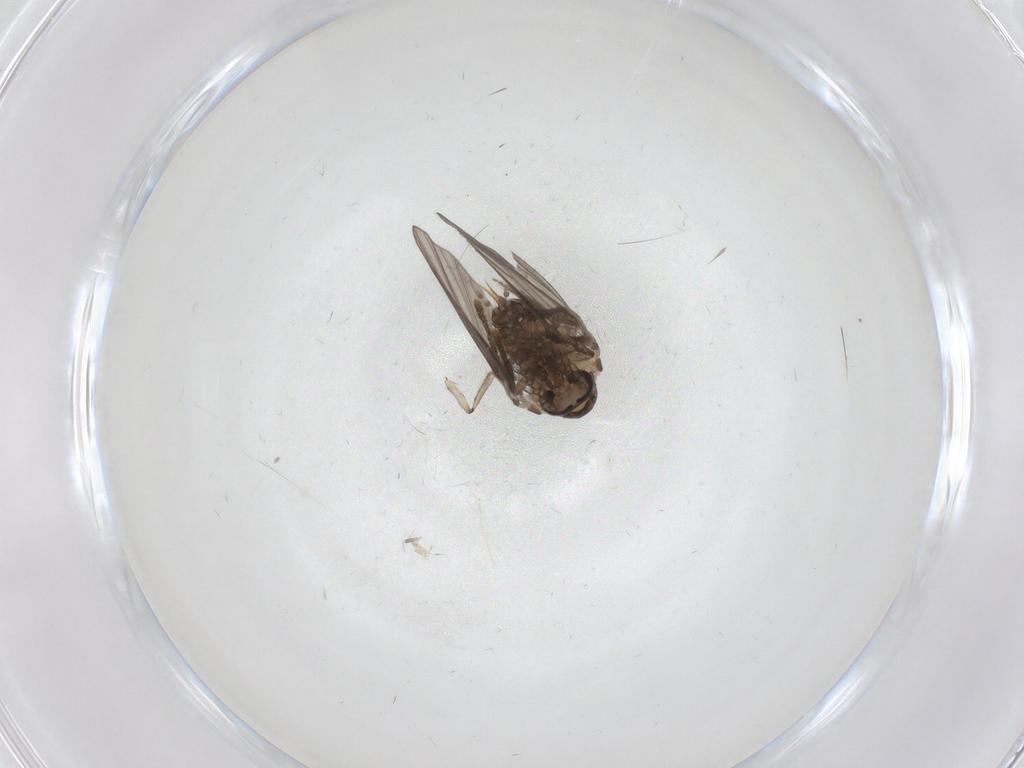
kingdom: Animalia
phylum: Arthropoda
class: Insecta
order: Diptera
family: Psychodidae
